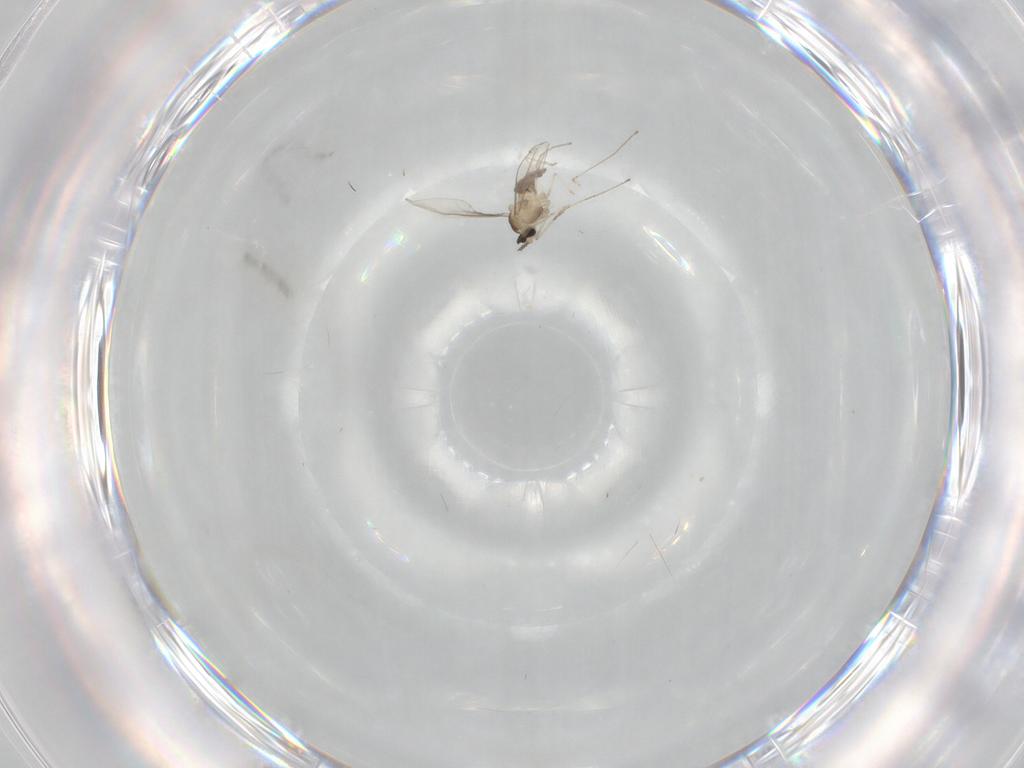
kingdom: Animalia
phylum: Arthropoda
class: Insecta
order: Diptera
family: Cecidomyiidae
